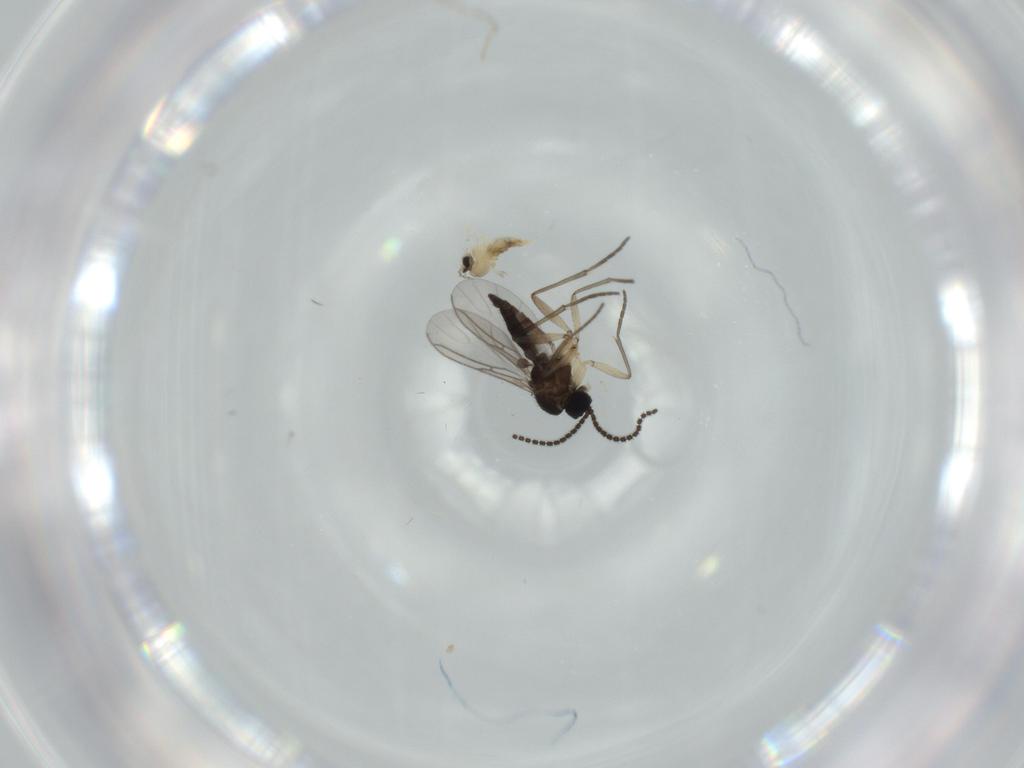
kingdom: Animalia
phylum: Arthropoda
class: Insecta
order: Diptera
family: Sciaridae
